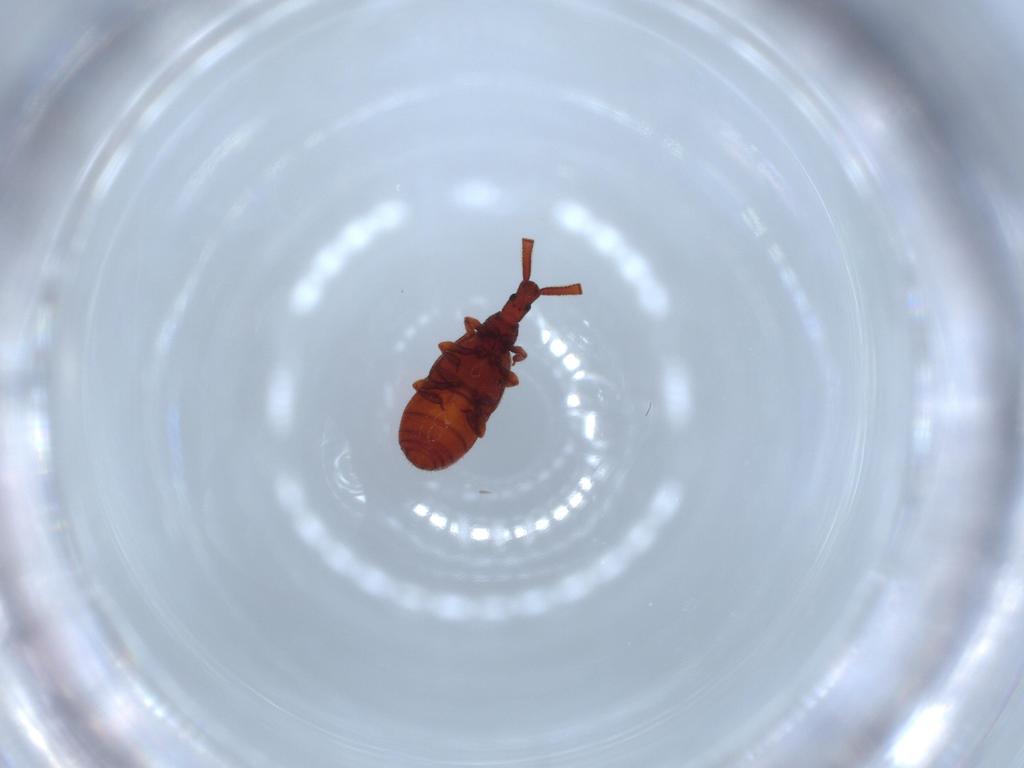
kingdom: Animalia
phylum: Arthropoda
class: Insecta
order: Coleoptera
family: Staphylinidae
